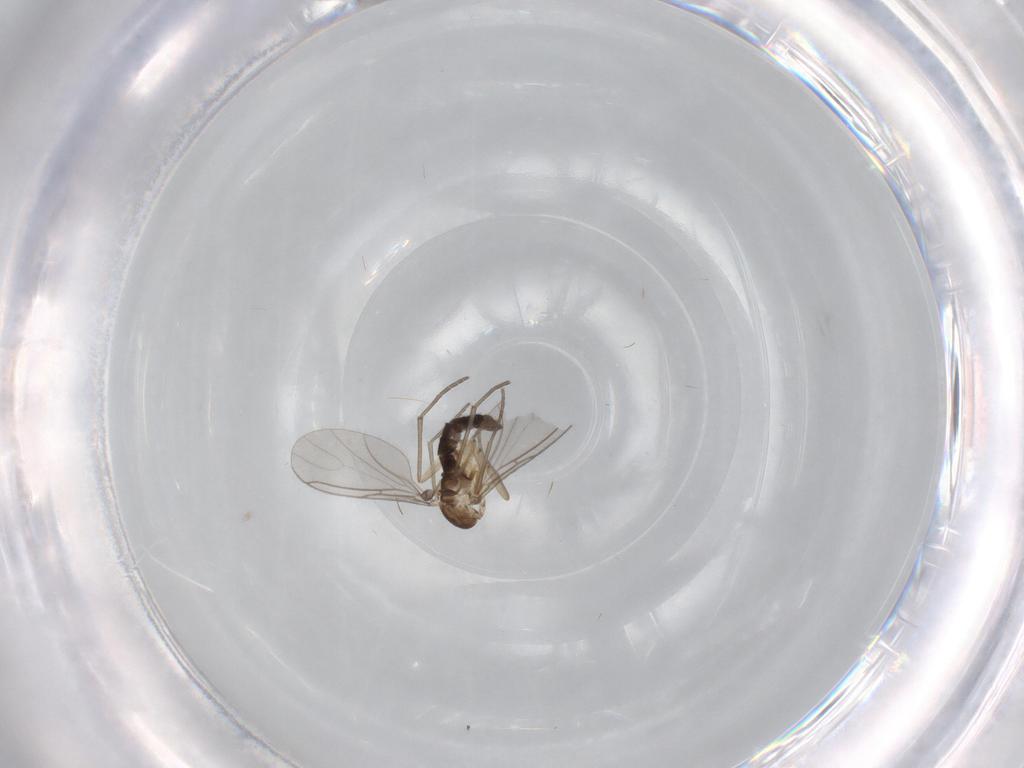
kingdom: Animalia
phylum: Arthropoda
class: Insecta
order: Diptera
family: Sciaridae
